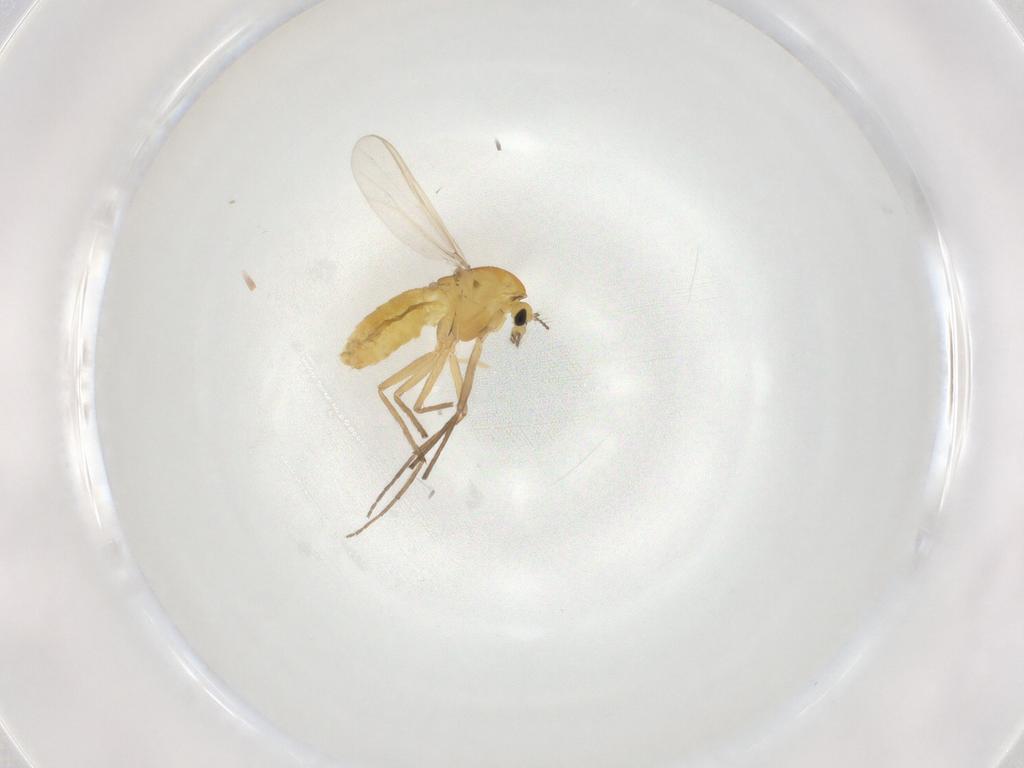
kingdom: Animalia
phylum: Arthropoda
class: Insecta
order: Diptera
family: Chironomidae
